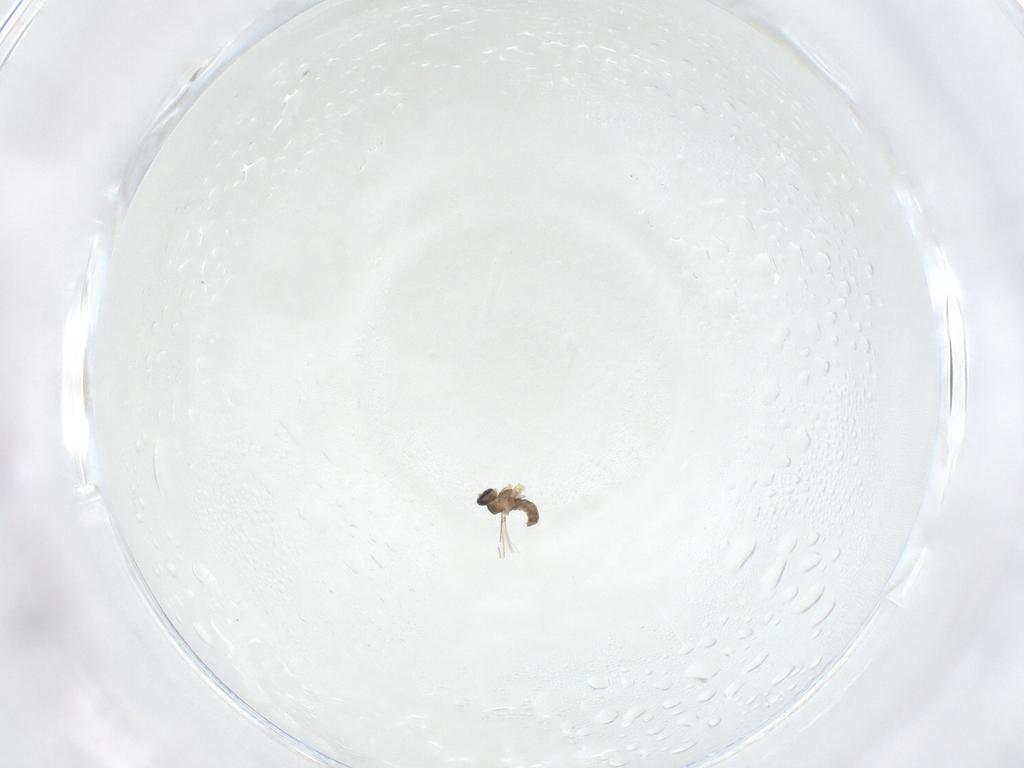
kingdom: Animalia
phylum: Arthropoda
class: Insecta
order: Diptera
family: Cecidomyiidae
